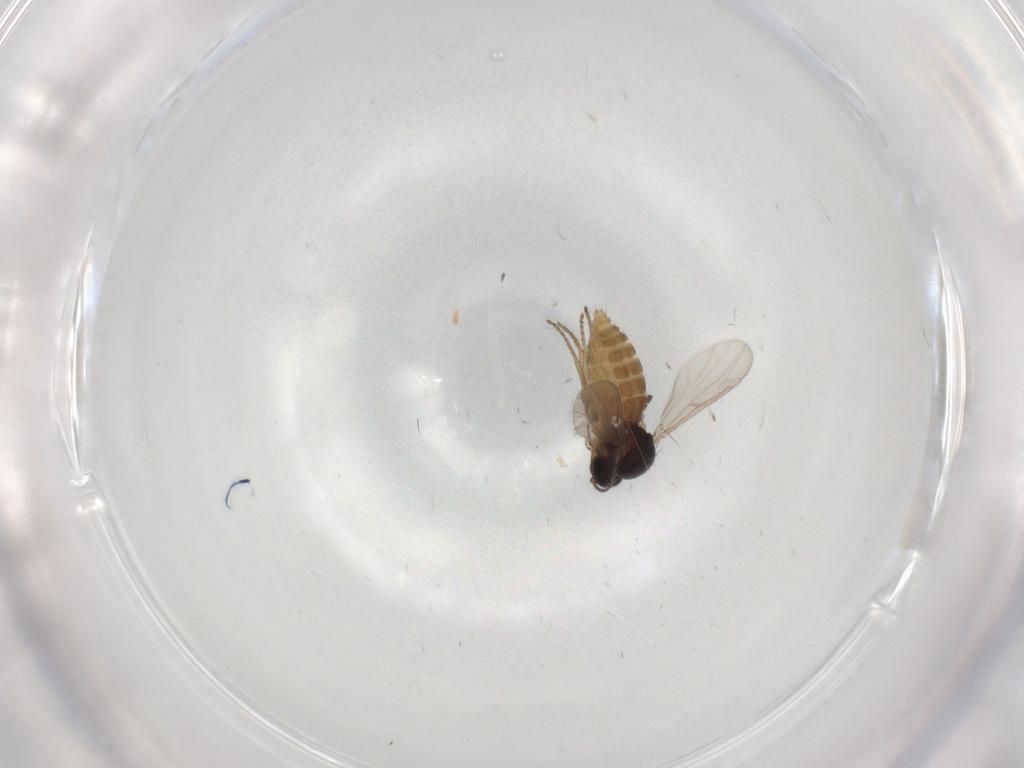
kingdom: Animalia
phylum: Arthropoda
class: Insecta
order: Diptera
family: Ceratopogonidae
